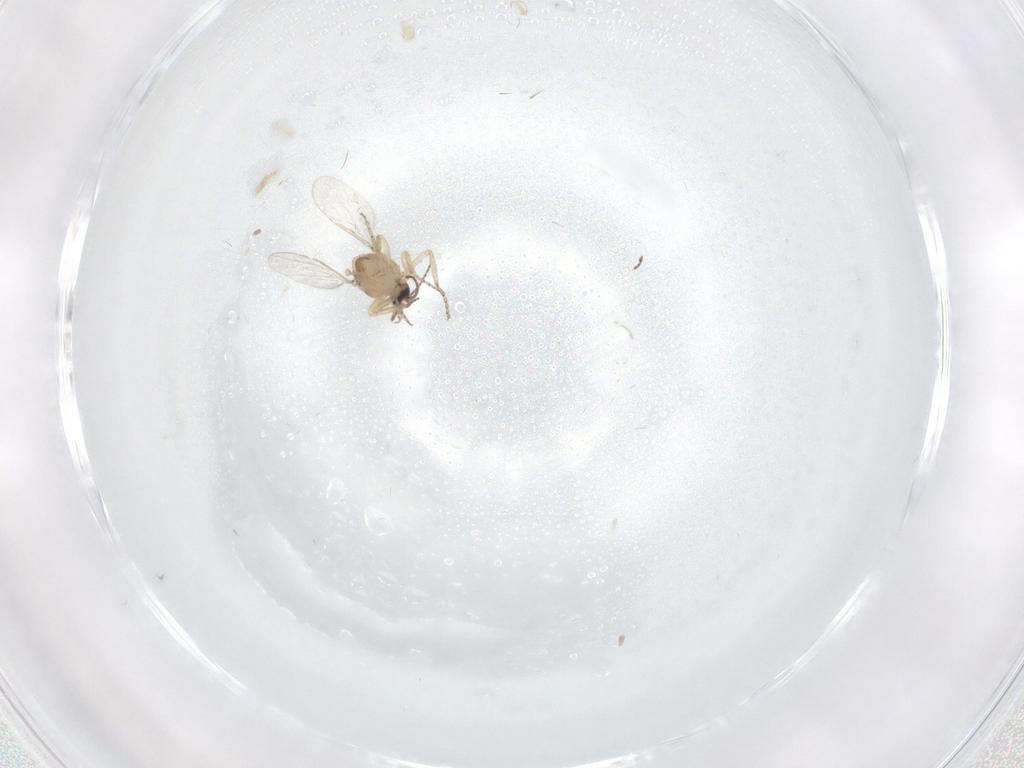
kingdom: Animalia
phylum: Arthropoda
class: Insecta
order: Diptera
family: Ceratopogonidae
